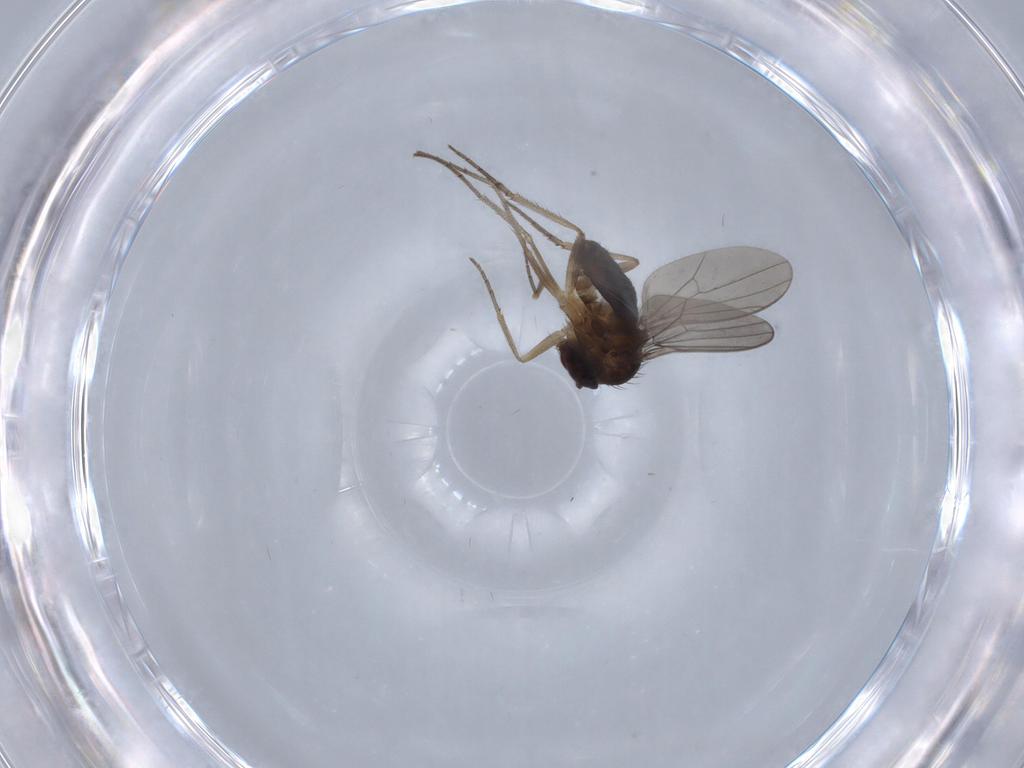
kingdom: Animalia
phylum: Arthropoda
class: Insecta
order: Diptera
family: Dolichopodidae
